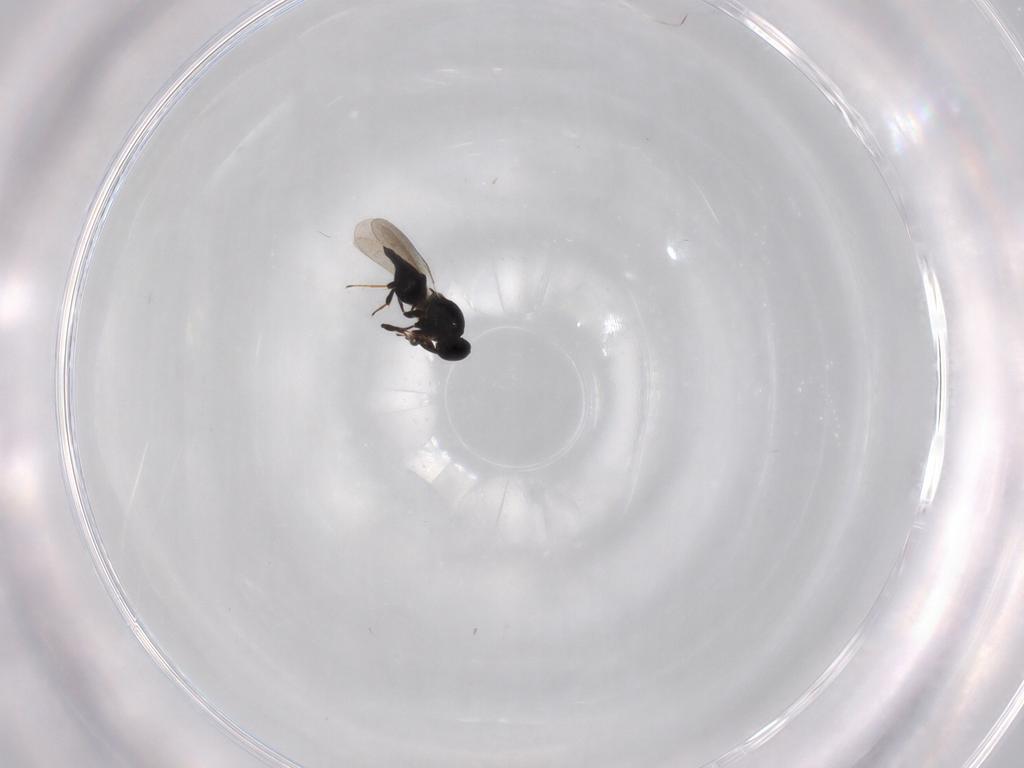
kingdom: Animalia
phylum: Arthropoda
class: Insecta
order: Hymenoptera
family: Platygastridae
